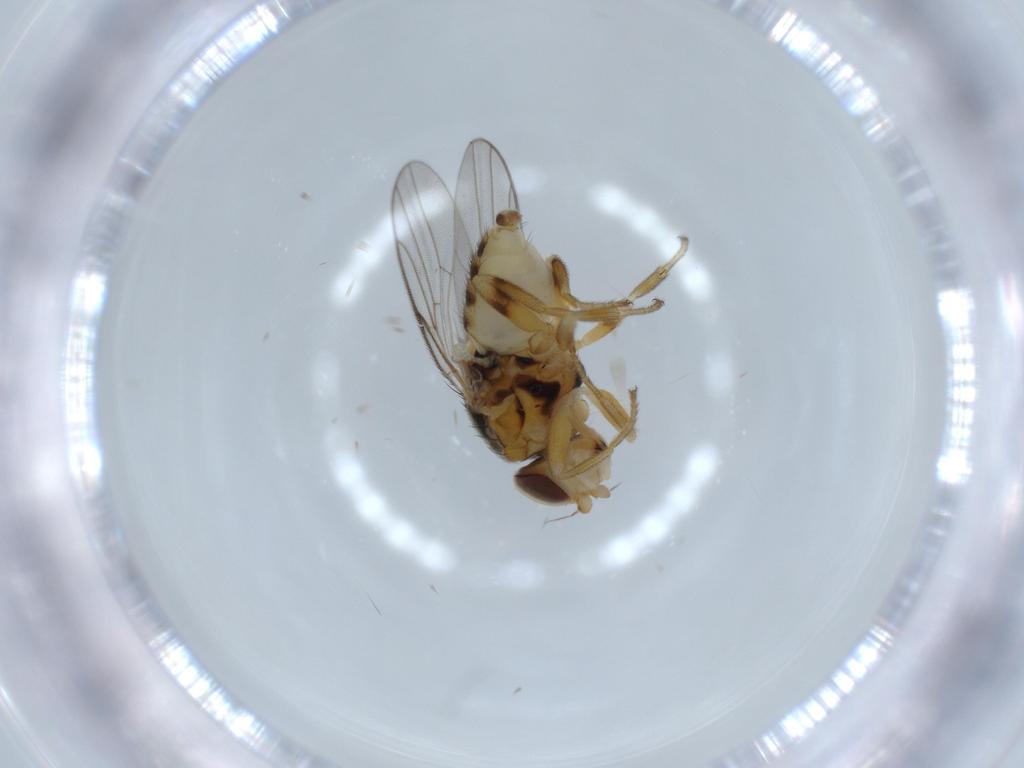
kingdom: Animalia
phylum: Arthropoda
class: Insecta
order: Diptera
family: Chloropidae
